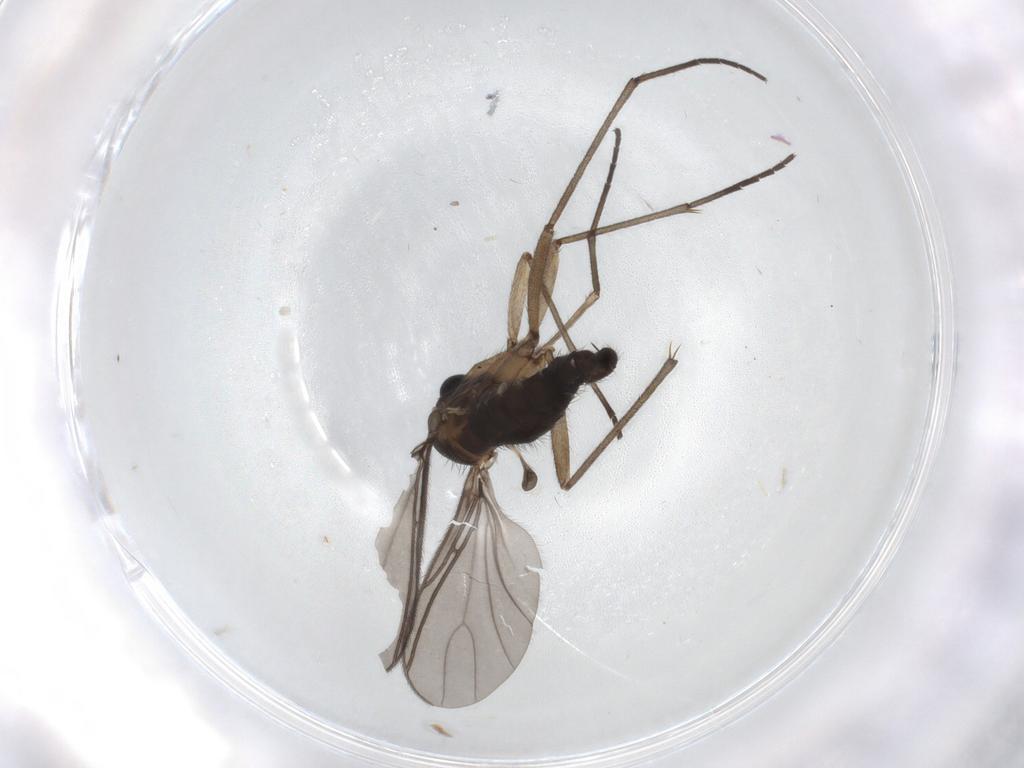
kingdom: Animalia
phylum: Arthropoda
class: Insecta
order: Diptera
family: Sciaridae
